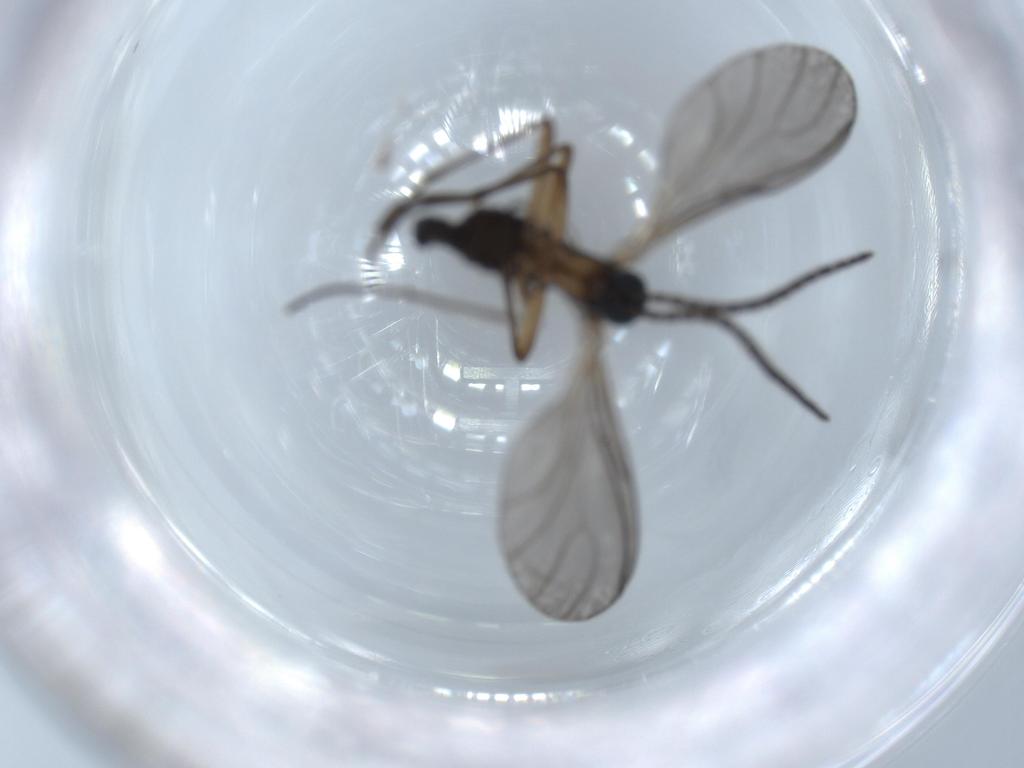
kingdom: Animalia
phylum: Arthropoda
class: Insecta
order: Diptera
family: Sciaridae
